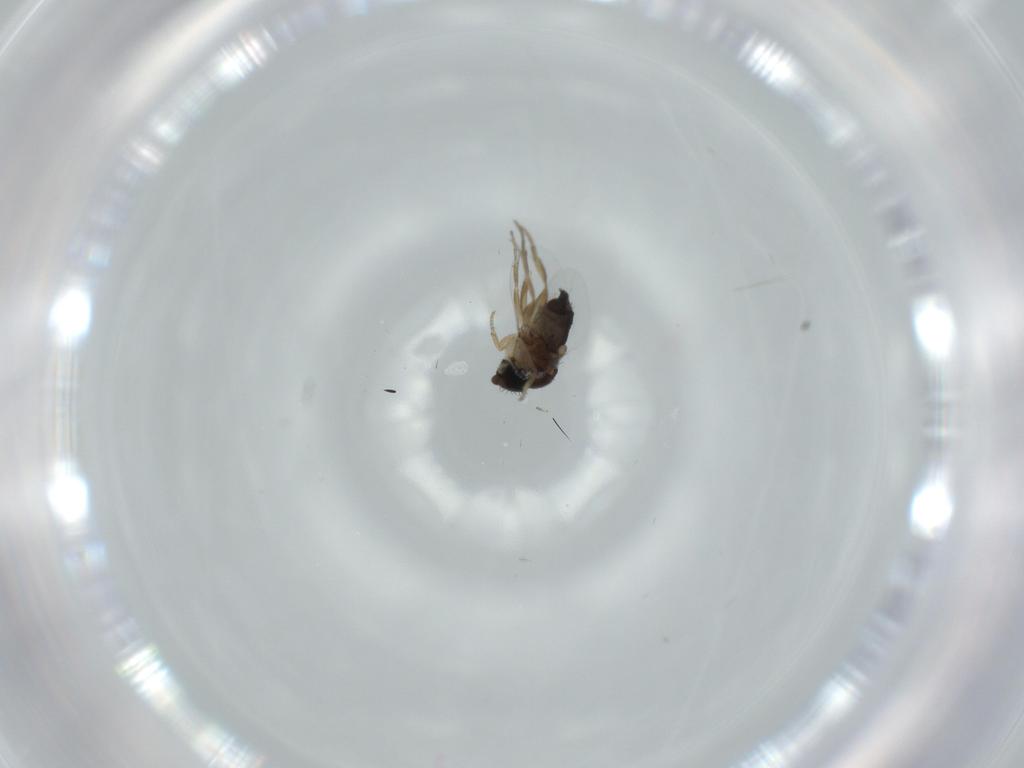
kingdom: Animalia
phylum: Arthropoda
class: Insecta
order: Diptera
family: Phoridae
